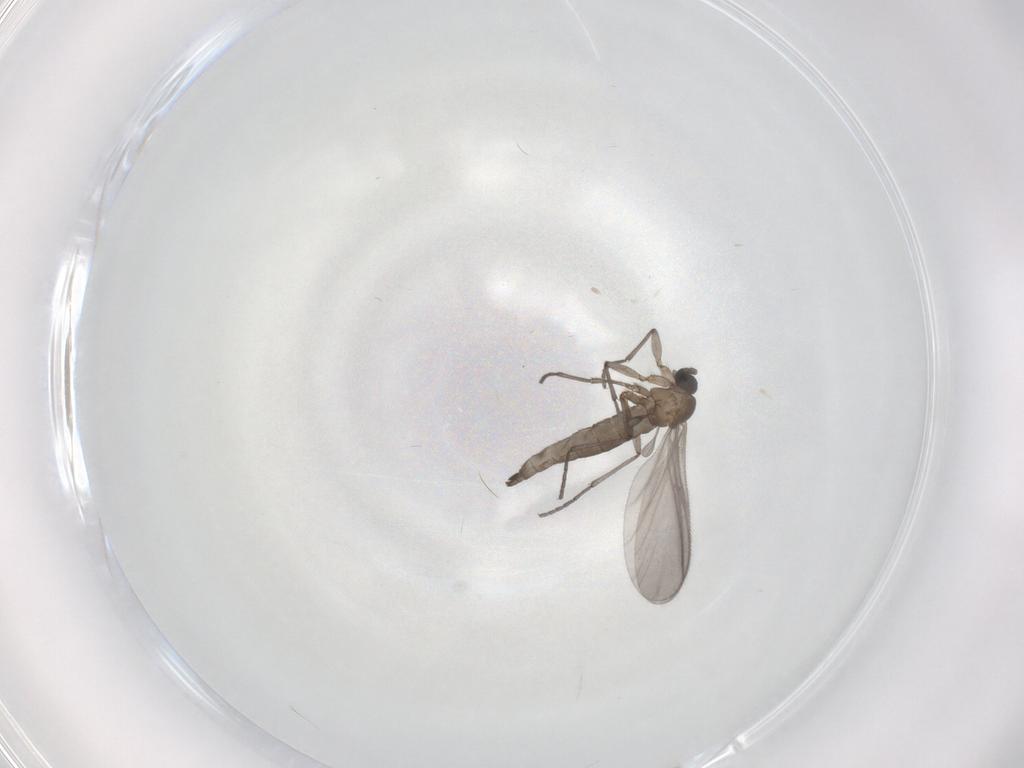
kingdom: Animalia
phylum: Arthropoda
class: Insecta
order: Diptera
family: Sciaridae
